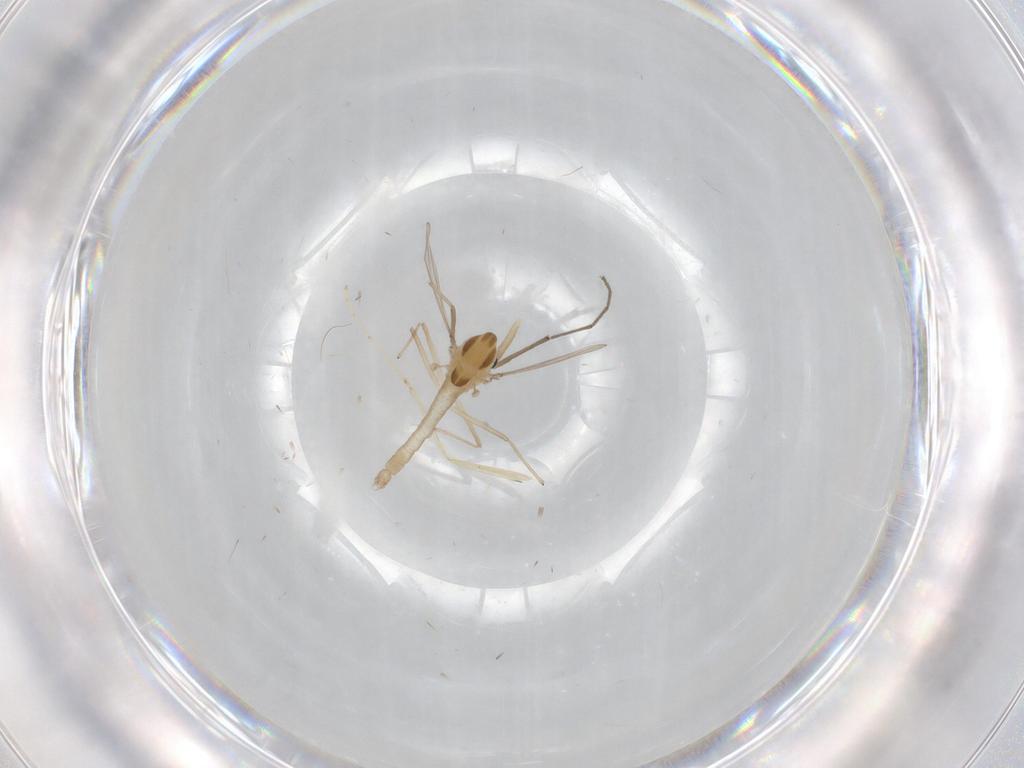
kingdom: Animalia
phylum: Arthropoda
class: Insecta
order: Diptera
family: Chironomidae
